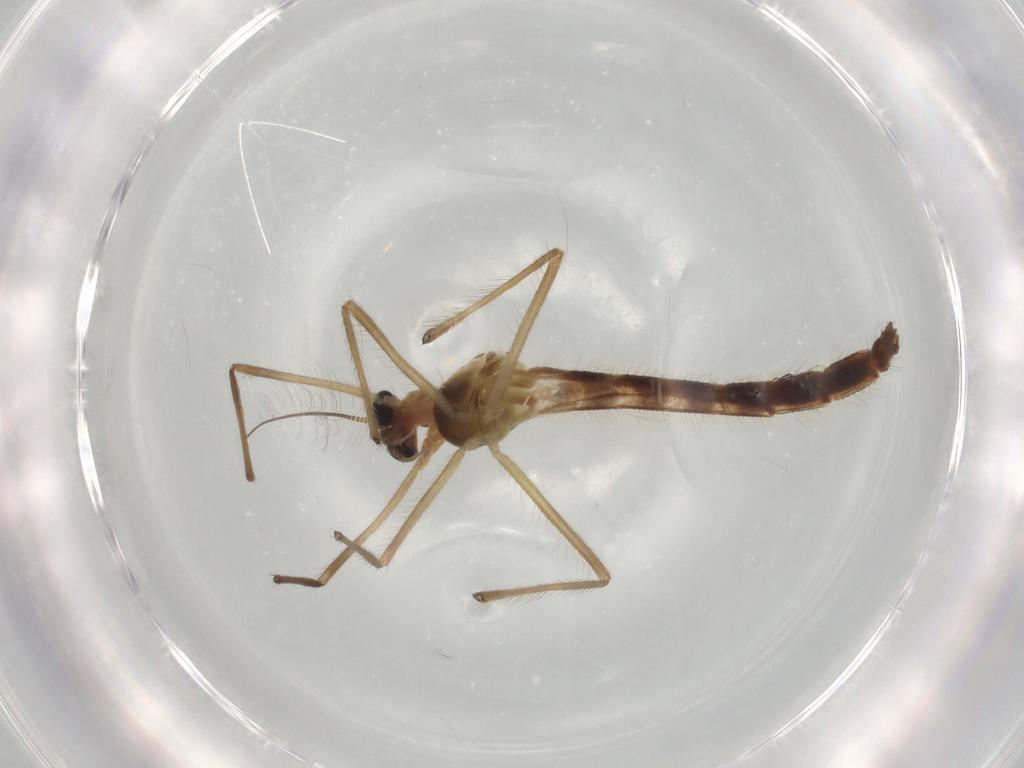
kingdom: Animalia
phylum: Arthropoda
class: Insecta
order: Diptera
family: Chironomidae
